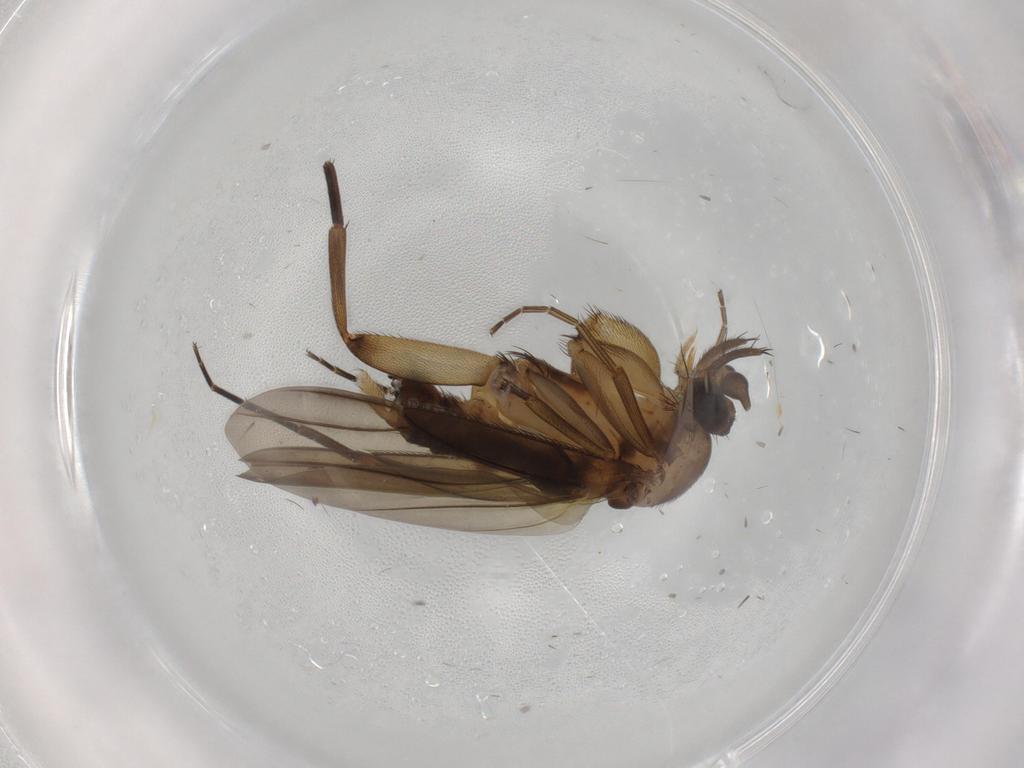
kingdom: Animalia
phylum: Arthropoda
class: Insecta
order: Diptera
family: Phoridae
